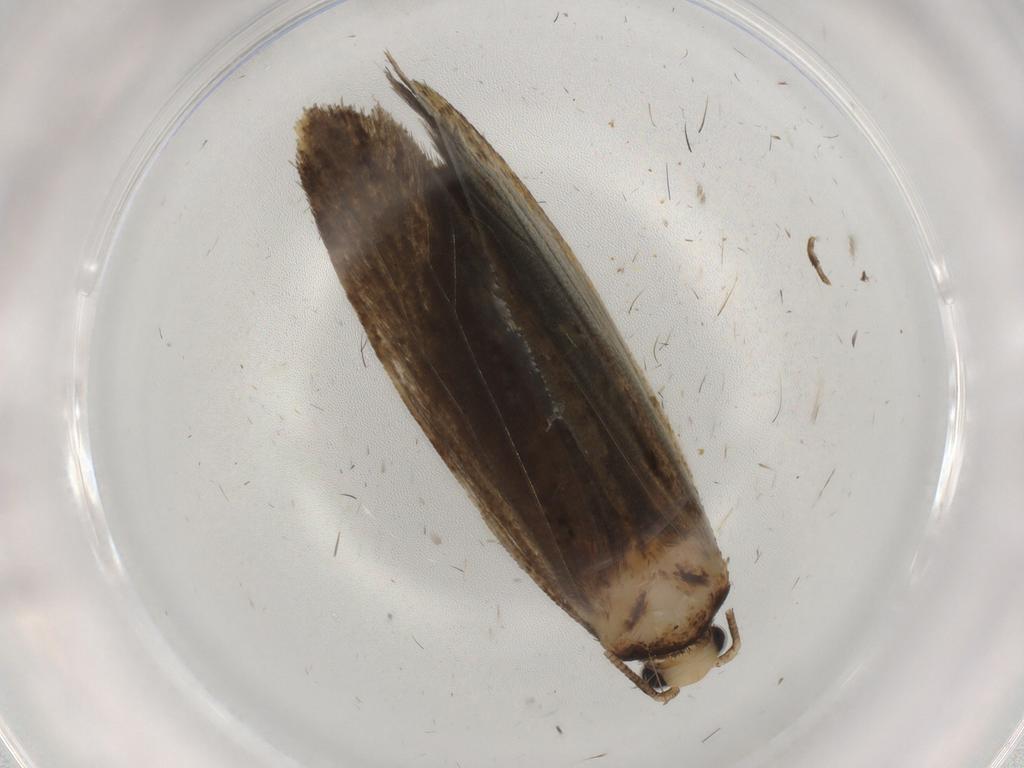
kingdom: Animalia
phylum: Arthropoda
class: Insecta
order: Lepidoptera
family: Tineidae
